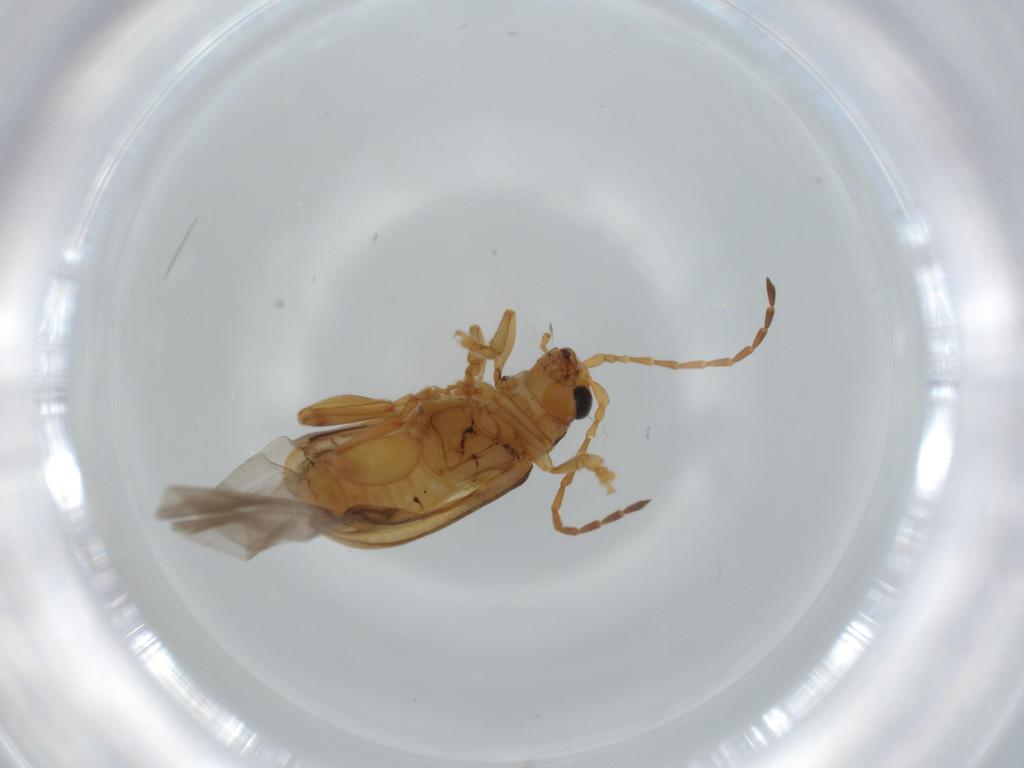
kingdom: Animalia
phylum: Arthropoda
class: Insecta
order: Coleoptera
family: Chrysomelidae
